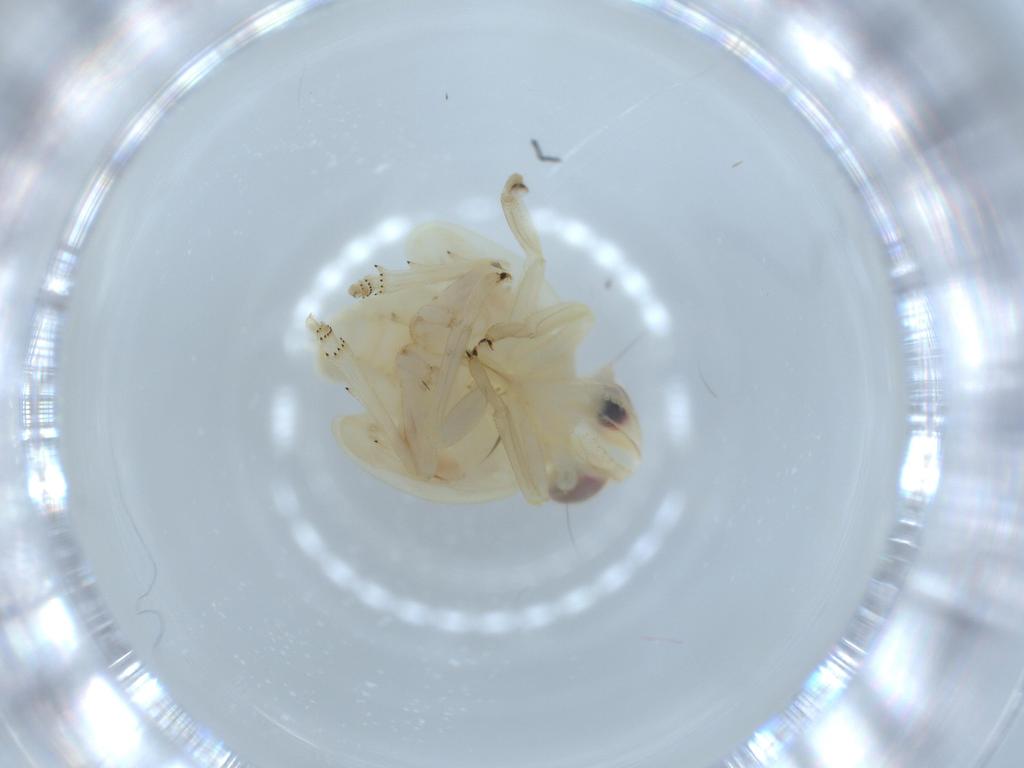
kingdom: Animalia
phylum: Arthropoda
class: Insecta
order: Hemiptera
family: Nogodinidae
